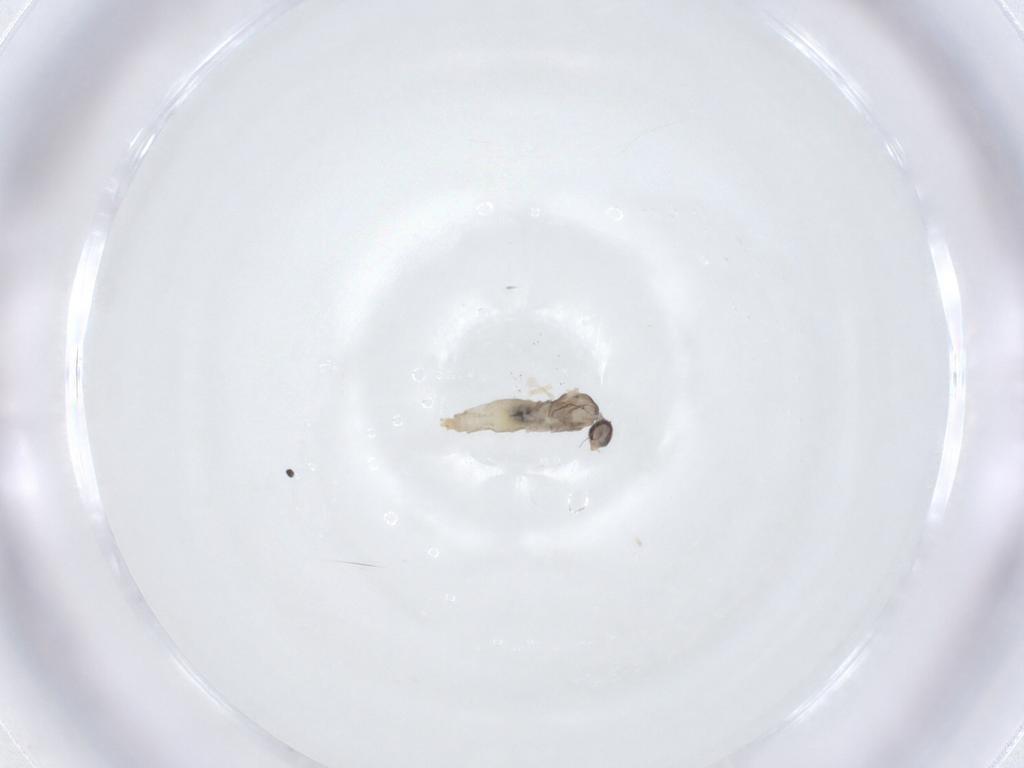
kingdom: Animalia
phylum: Arthropoda
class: Insecta
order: Diptera
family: Cecidomyiidae
